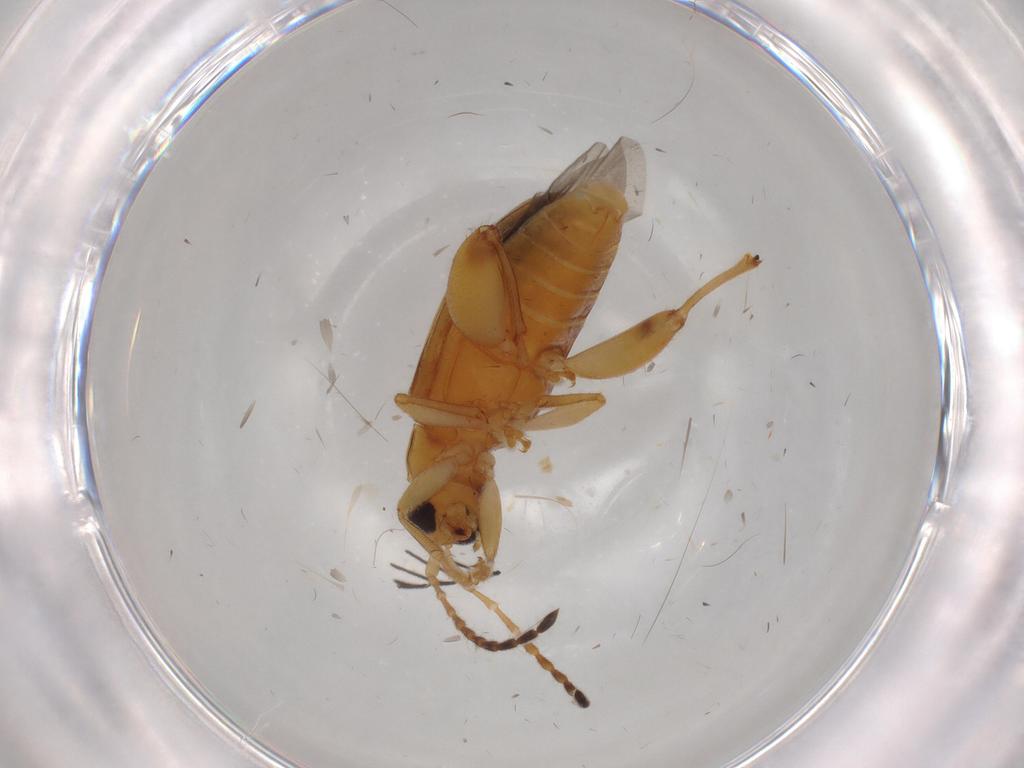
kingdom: Animalia
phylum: Arthropoda
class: Insecta
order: Coleoptera
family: Chrysomelidae
